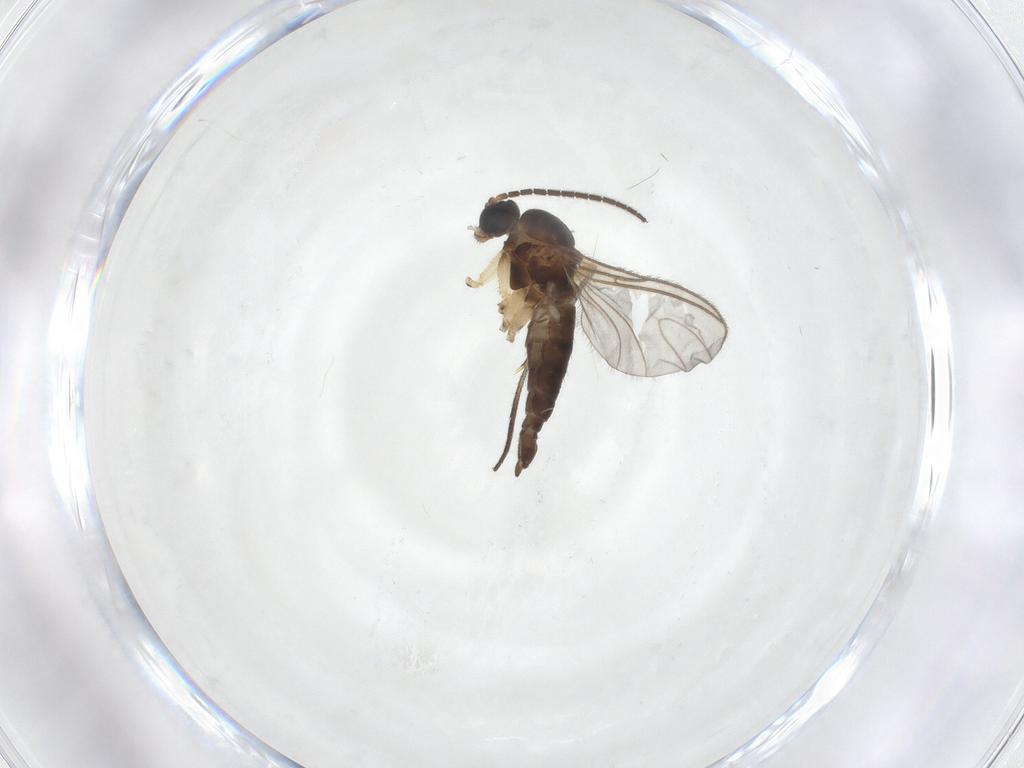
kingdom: Animalia
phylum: Arthropoda
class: Insecta
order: Diptera
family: Sciaridae
